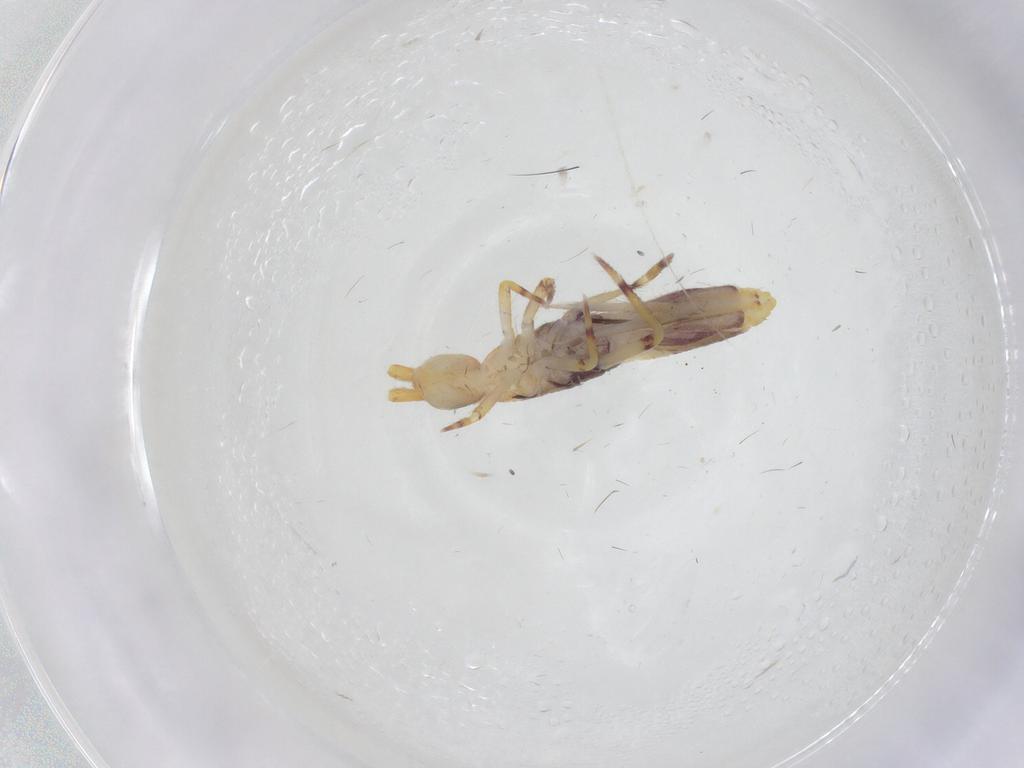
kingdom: Animalia
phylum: Arthropoda
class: Collembola
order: Entomobryomorpha
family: Entomobryidae
